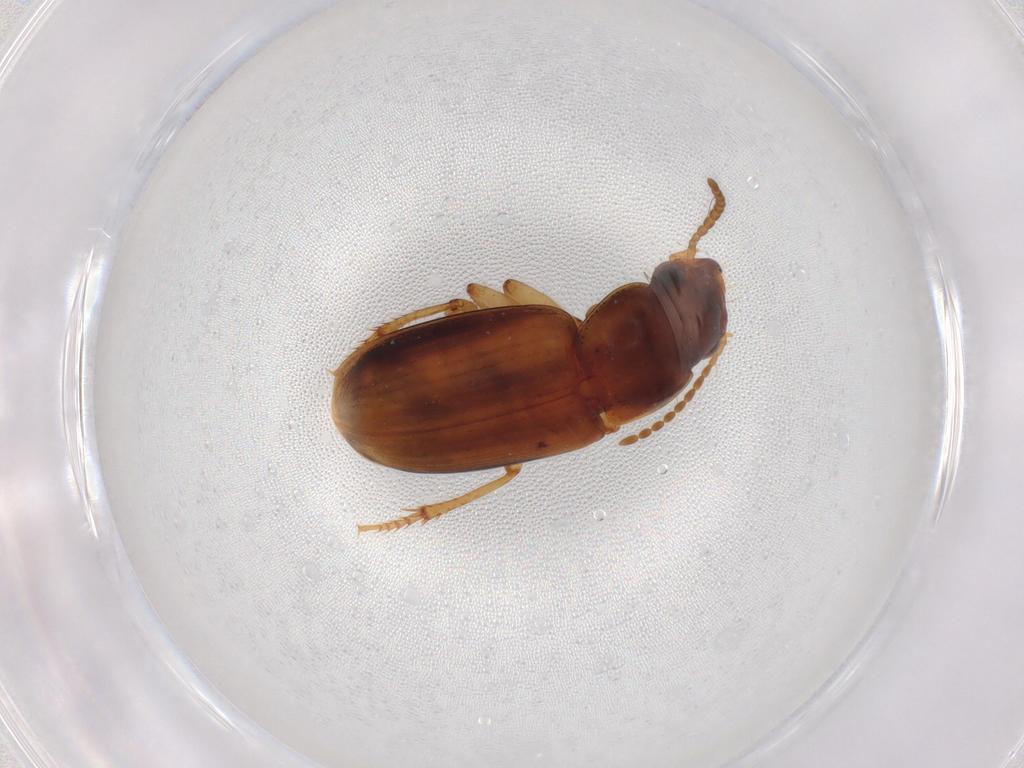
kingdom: Animalia
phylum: Arthropoda
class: Insecta
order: Coleoptera
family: Carabidae
